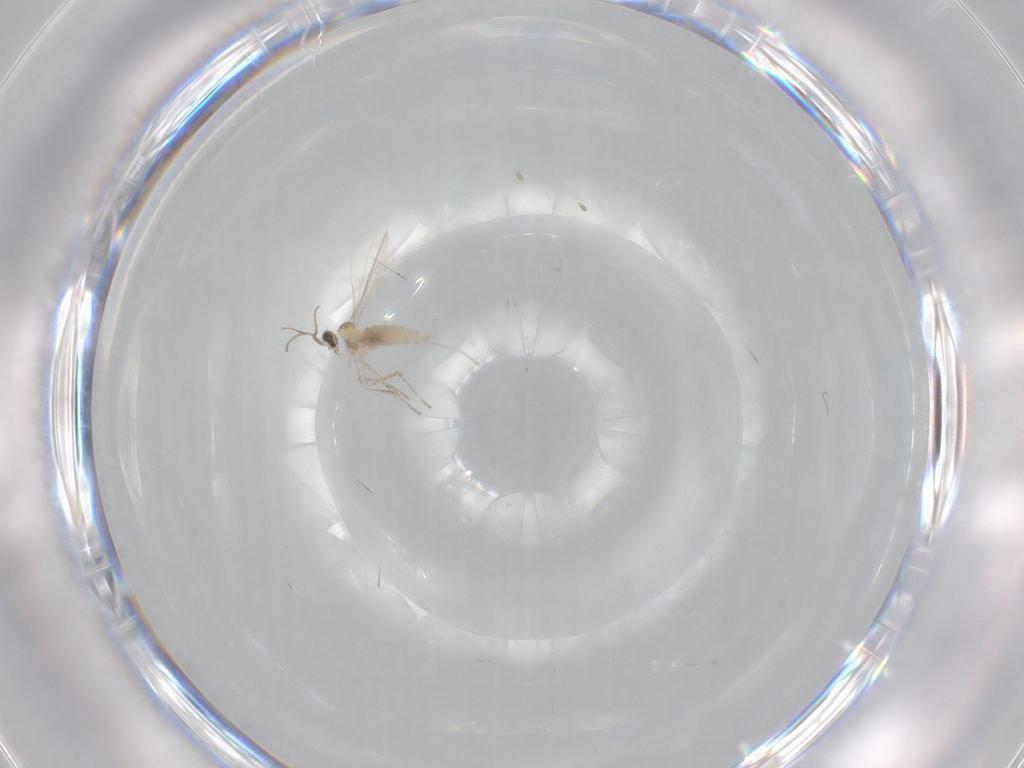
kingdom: Animalia
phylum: Arthropoda
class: Insecta
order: Diptera
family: Cecidomyiidae
